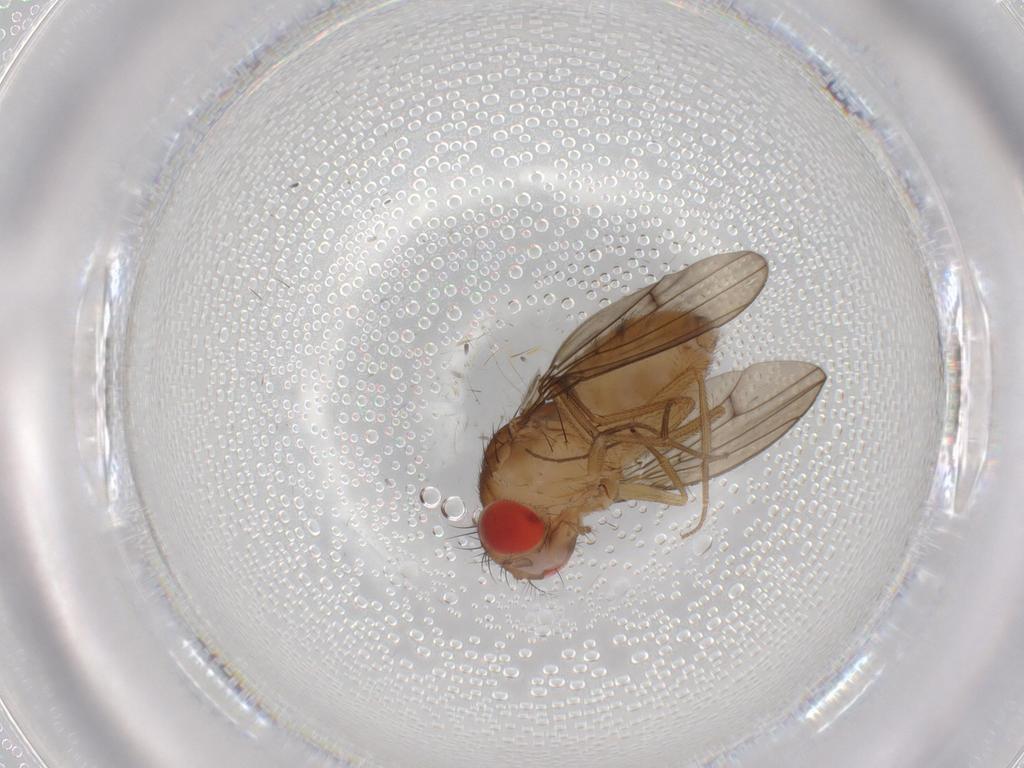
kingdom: Animalia
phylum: Arthropoda
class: Insecta
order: Diptera
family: Drosophilidae
